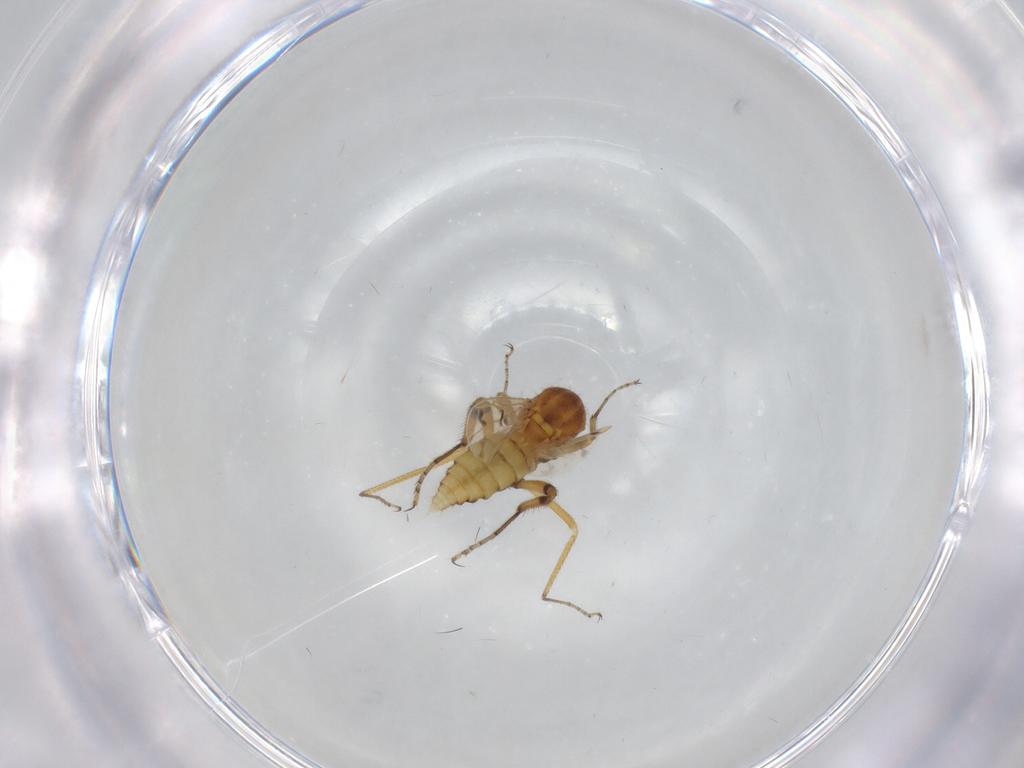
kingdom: Animalia
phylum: Arthropoda
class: Insecta
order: Diptera
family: Ceratopogonidae
